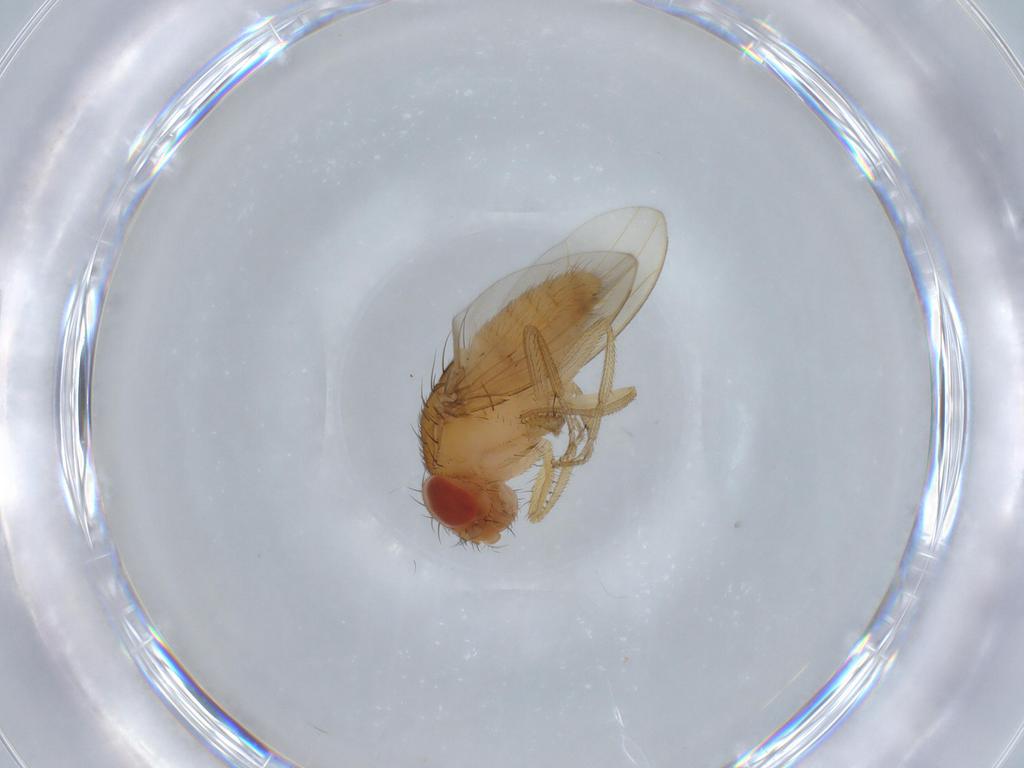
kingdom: Animalia
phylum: Arthropoda
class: Insecta
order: Diptera
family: Drosophilidae
